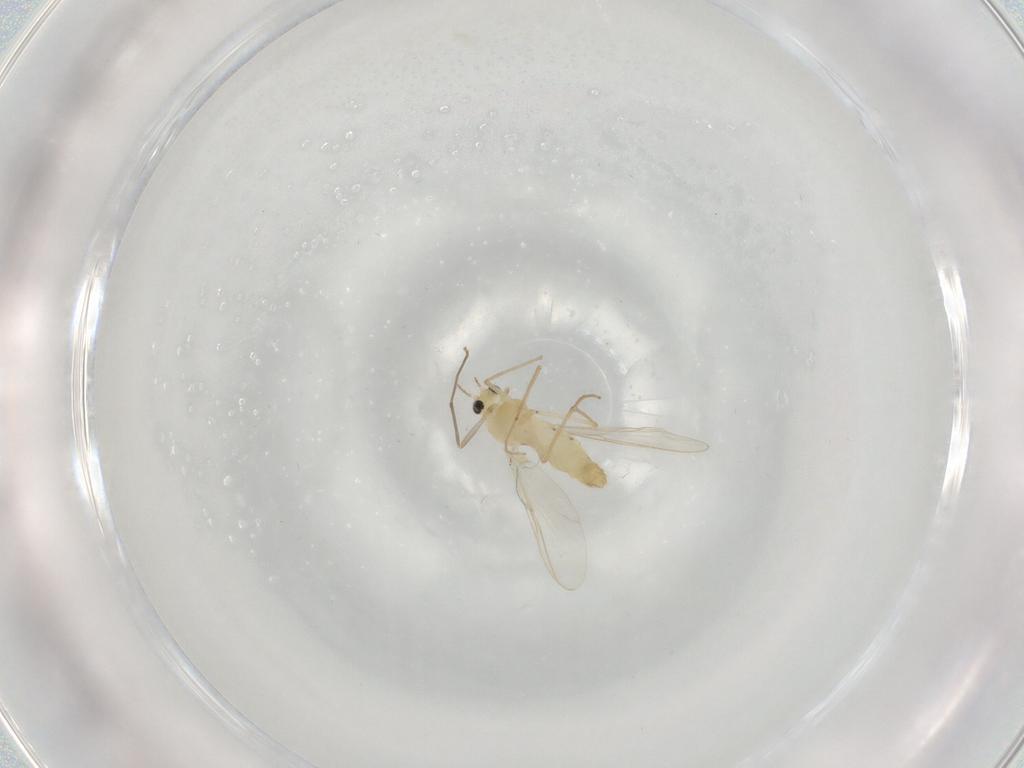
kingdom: Animalia
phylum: Arthropoda
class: Insecta
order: Diptera
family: Chironomidae
